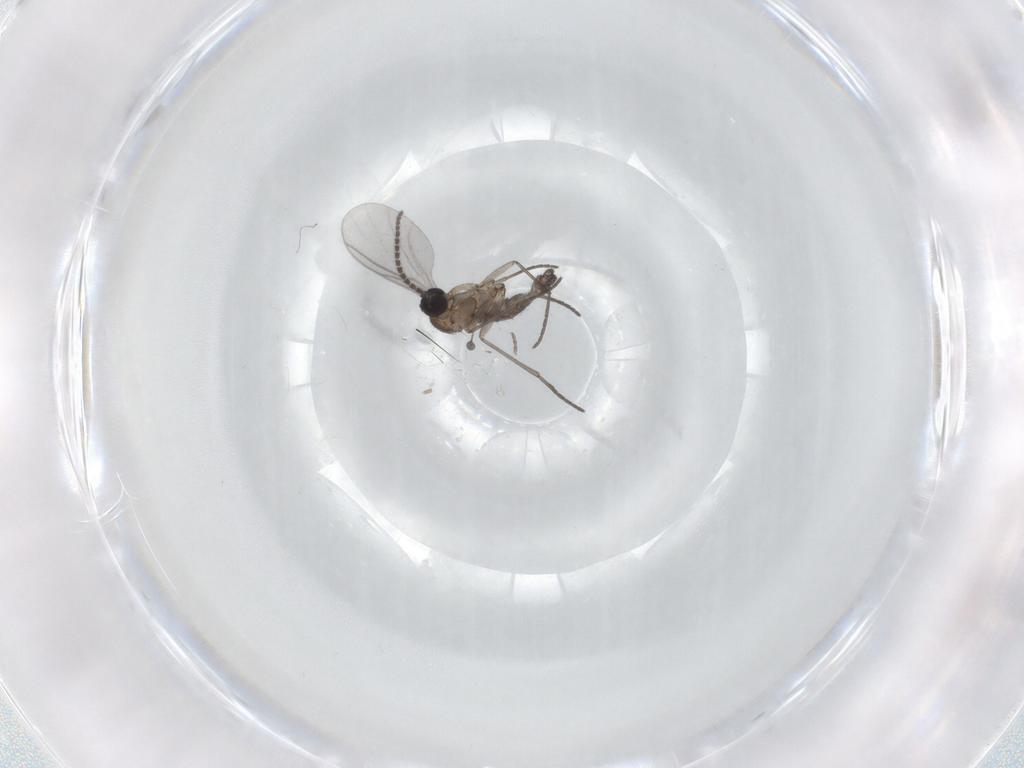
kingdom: Animalia
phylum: Arthropoda
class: Insecta
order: Diptera
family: Sciaridae
